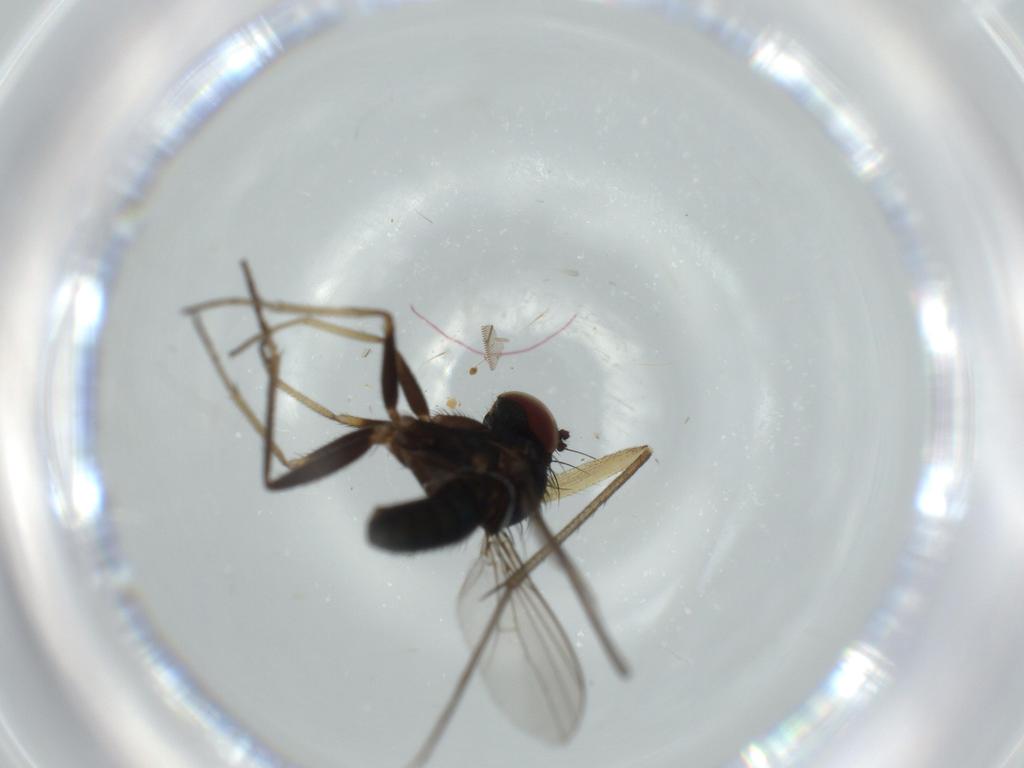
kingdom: Animalia
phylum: Arthropoda
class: Insecta
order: Diptera
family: Mycetophilidae
